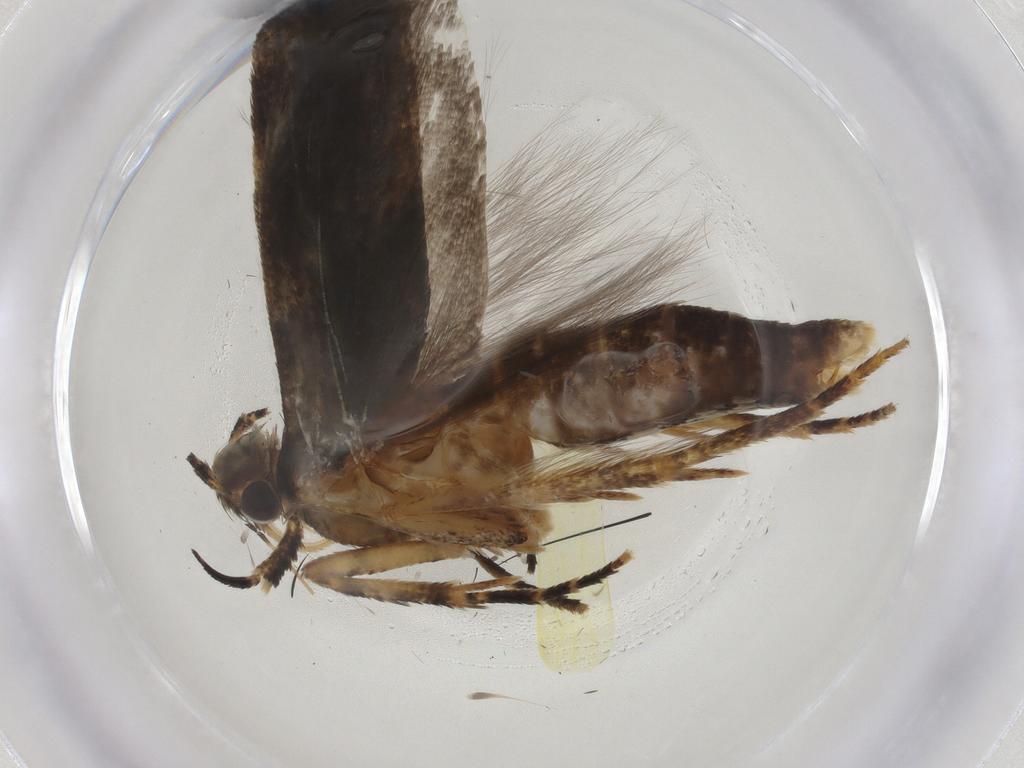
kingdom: Animalia
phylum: Arthropoda
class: Insecta
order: Lepidoptera
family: Gelechiidae
